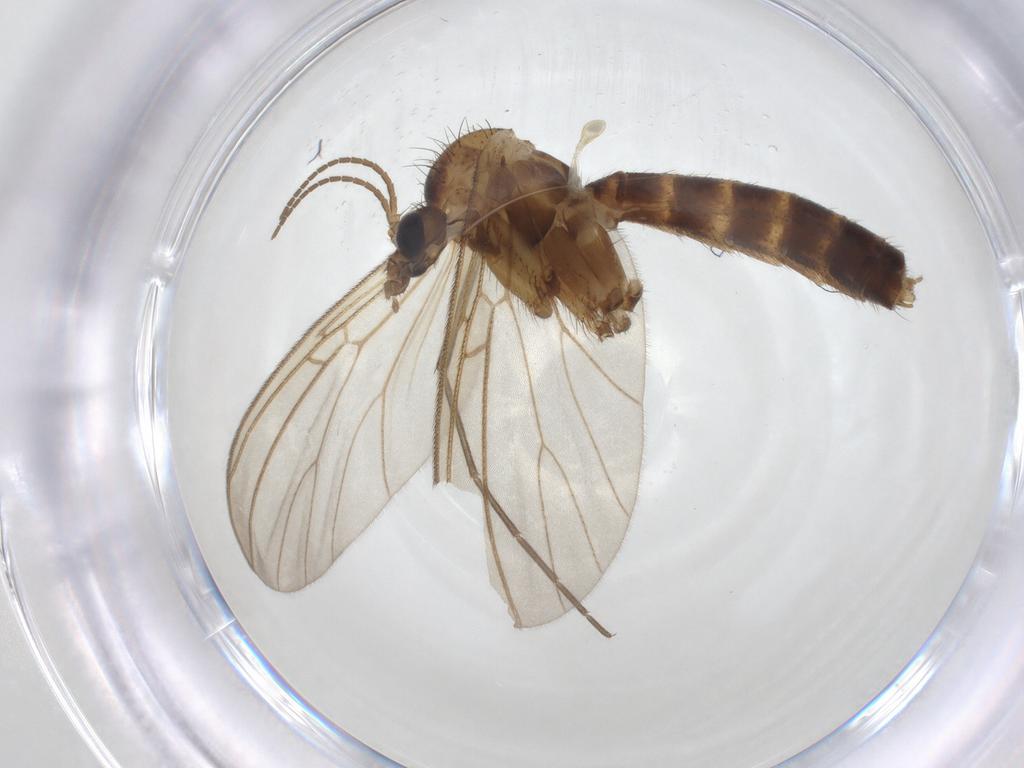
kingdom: Animalia
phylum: Arthropoda
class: Insecta
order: Diptera
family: Mycetophilidae
